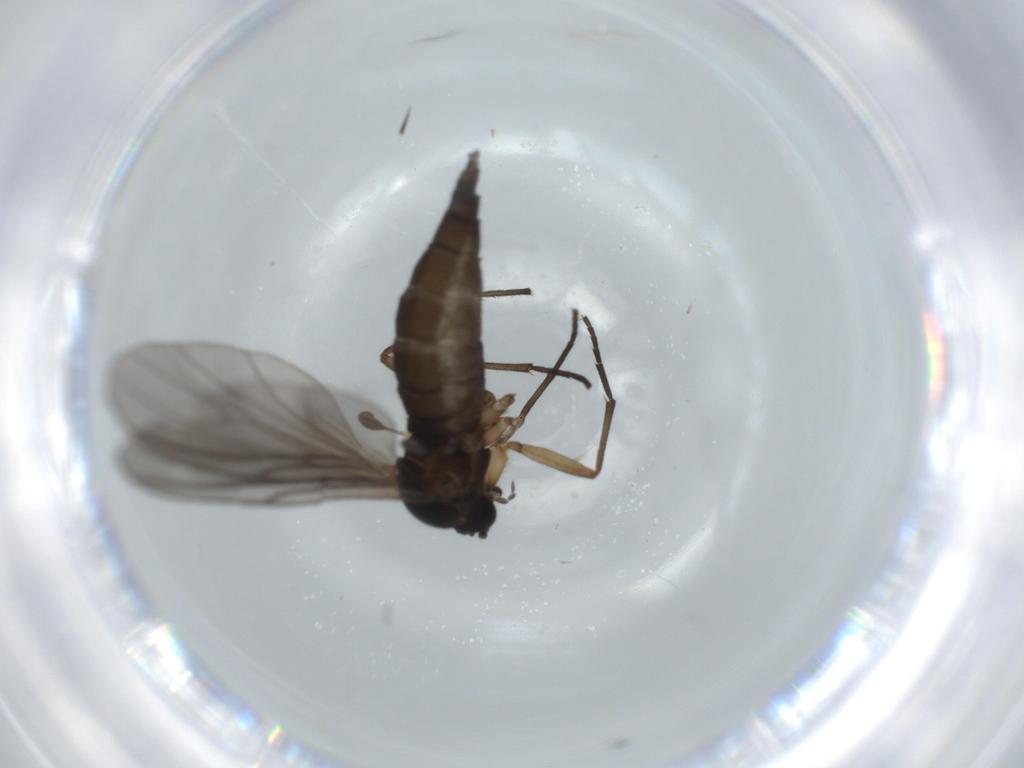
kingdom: Animalia
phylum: Arthropoda
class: Insecta
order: Diptera
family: Sciaridae
